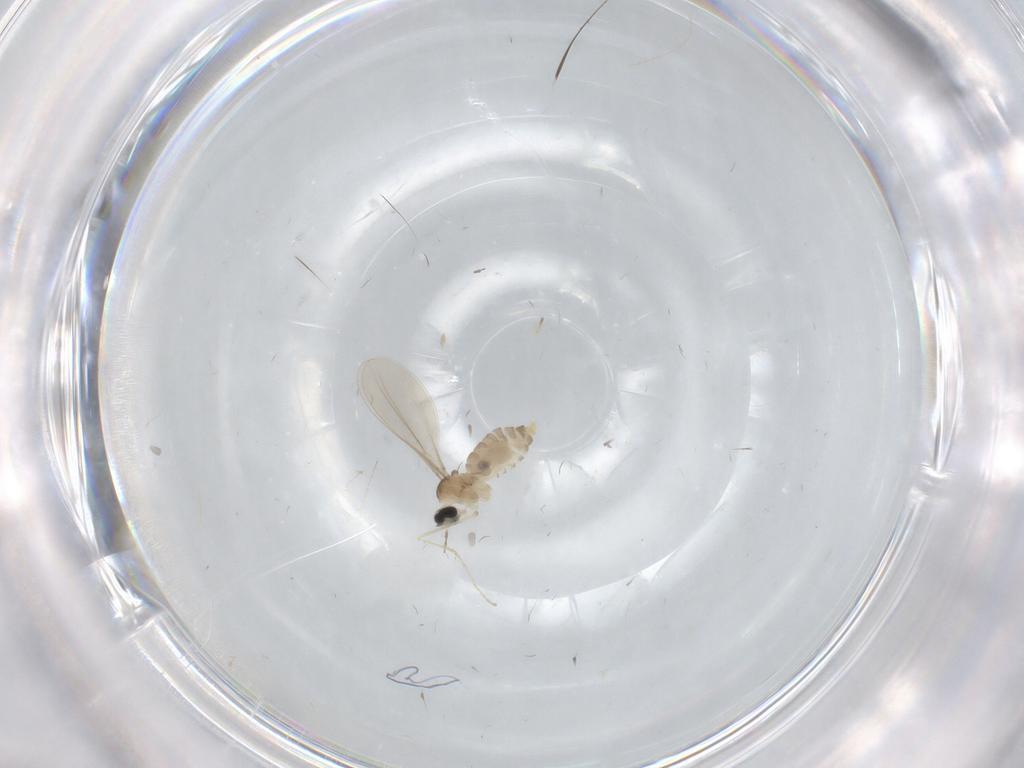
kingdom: Animalia
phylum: Arthropoda
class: Insecta
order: Diptera
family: Cecidomyiidae
